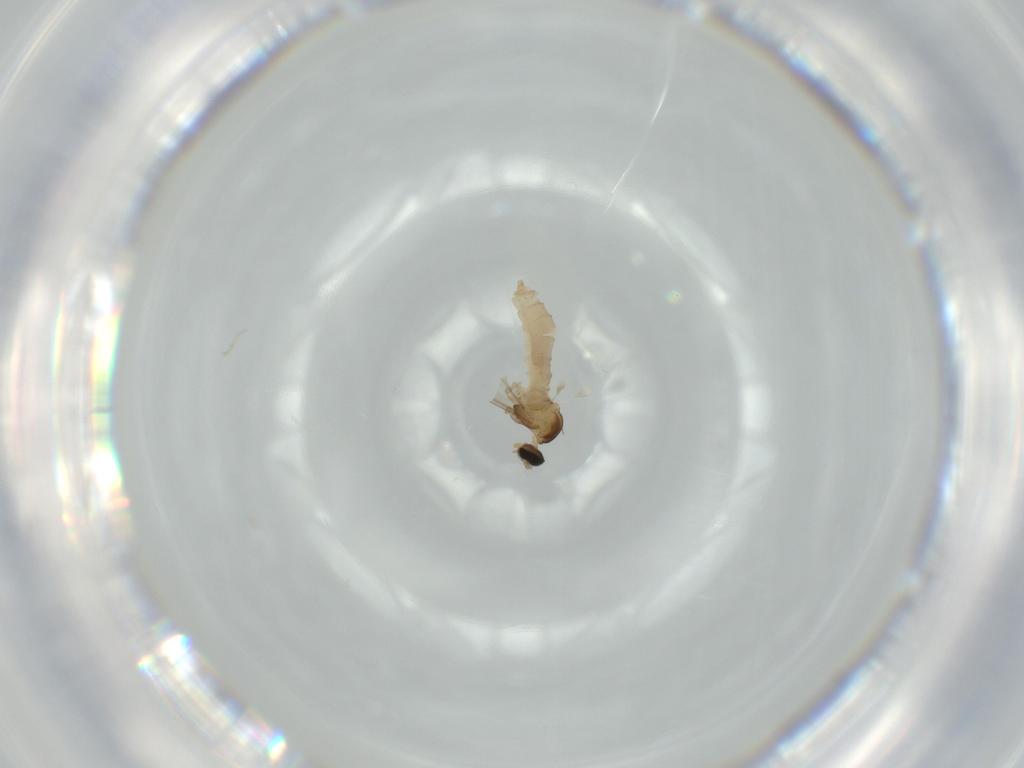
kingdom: Animalia
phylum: Arthropoda
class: Insecta
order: Diptera
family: Cecidomyiidae
